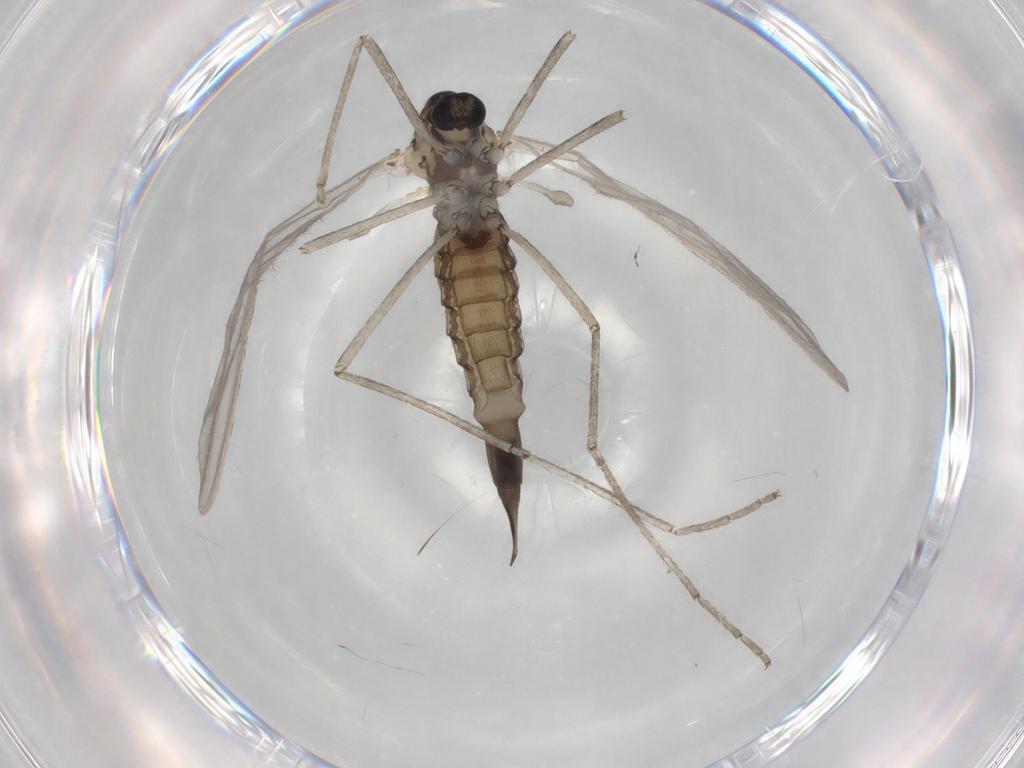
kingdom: Animalia
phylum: Arthropoda
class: Insecta
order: Diptera
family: Cecidomyiidae
